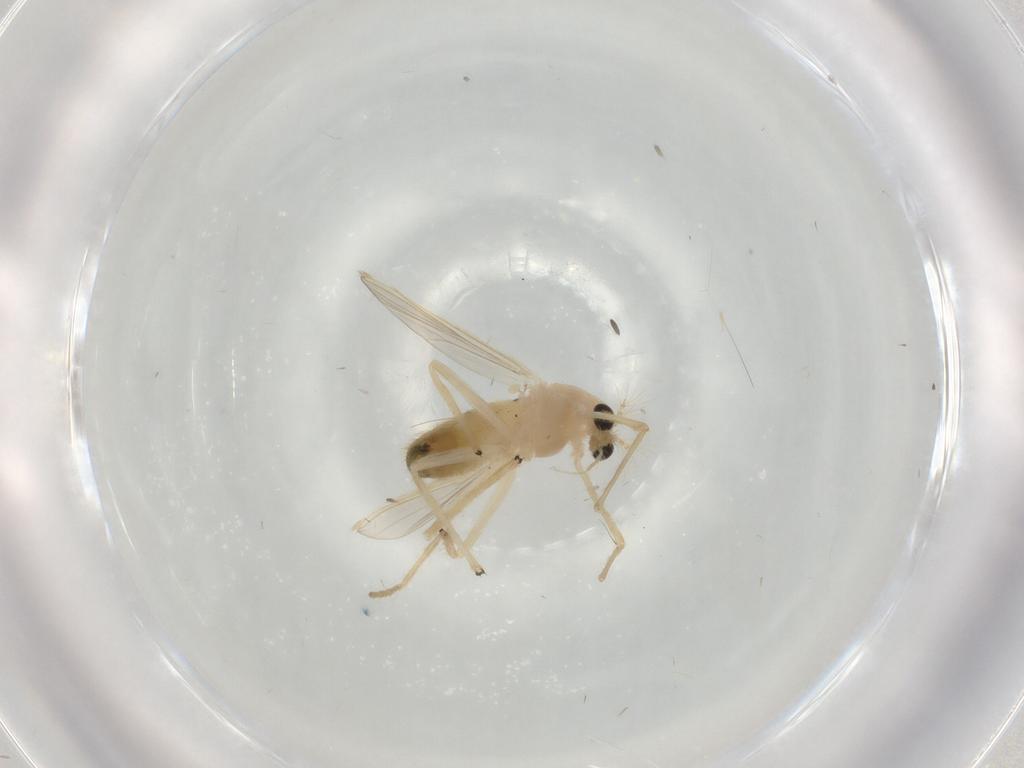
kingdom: Animalia
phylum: Arthropoda
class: Insecta
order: Diptera
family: Chironomidae
